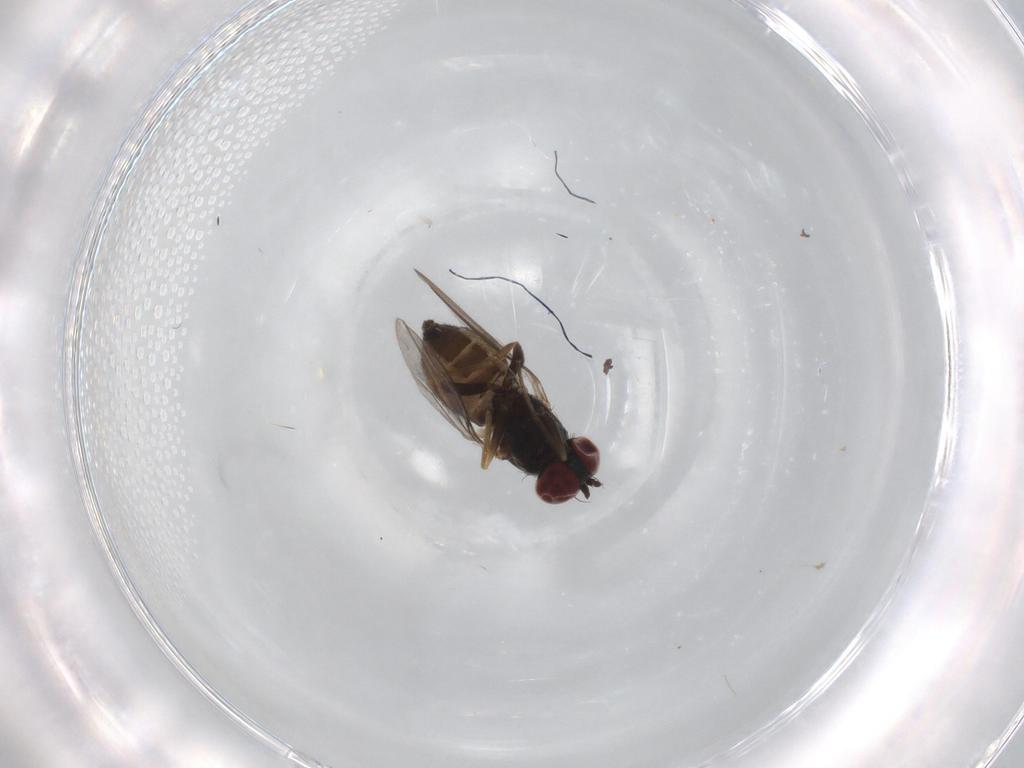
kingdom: Animalia
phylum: Arthropoda
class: Insecta
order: Diptera
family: Dolichopodidae
